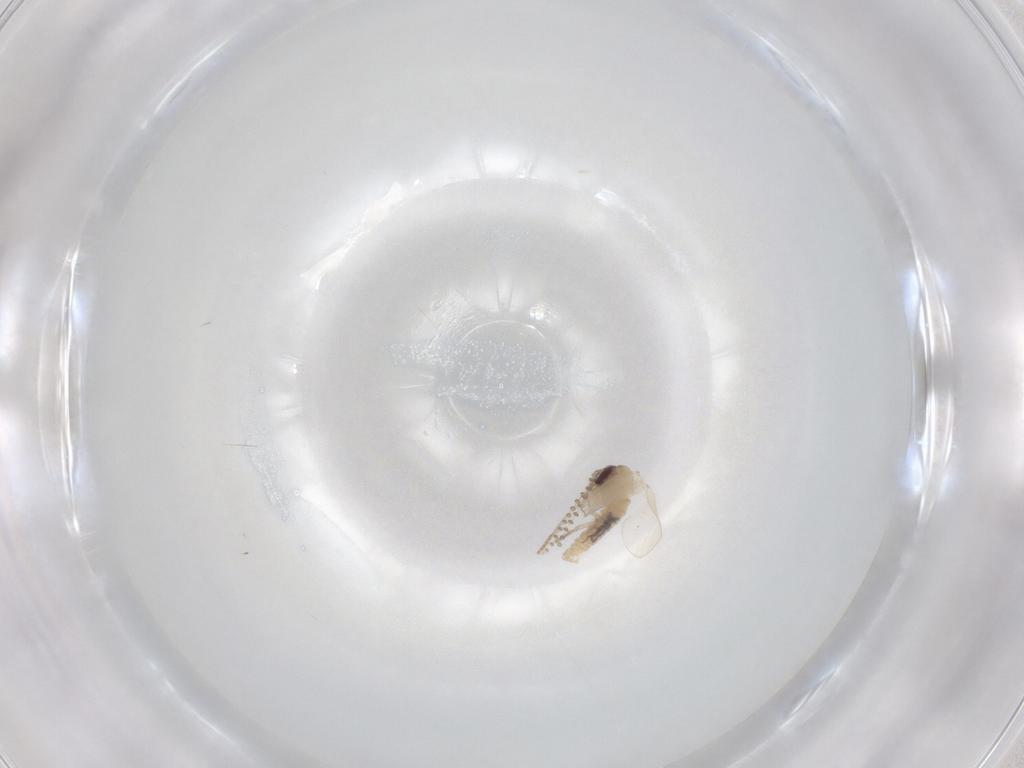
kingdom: Animalia
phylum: Arthropoda
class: Insecta
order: Diptera
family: Psychodidae
